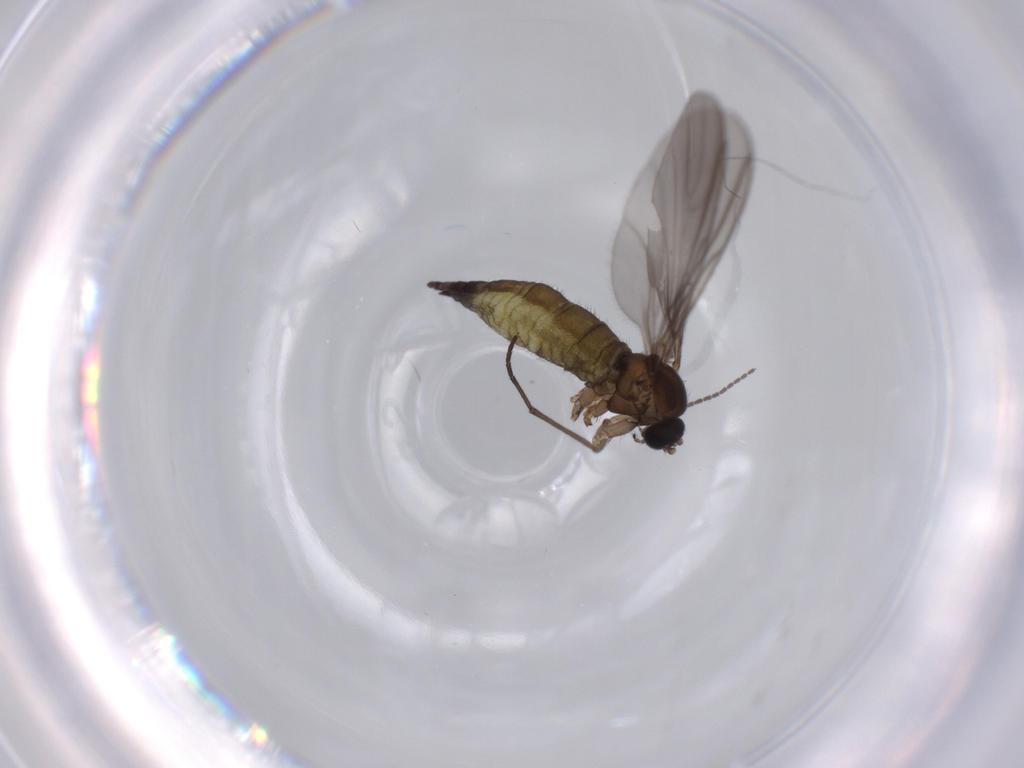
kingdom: Animalia
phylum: Arthropoda
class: Insecta
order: Diptera
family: Sciaridae
